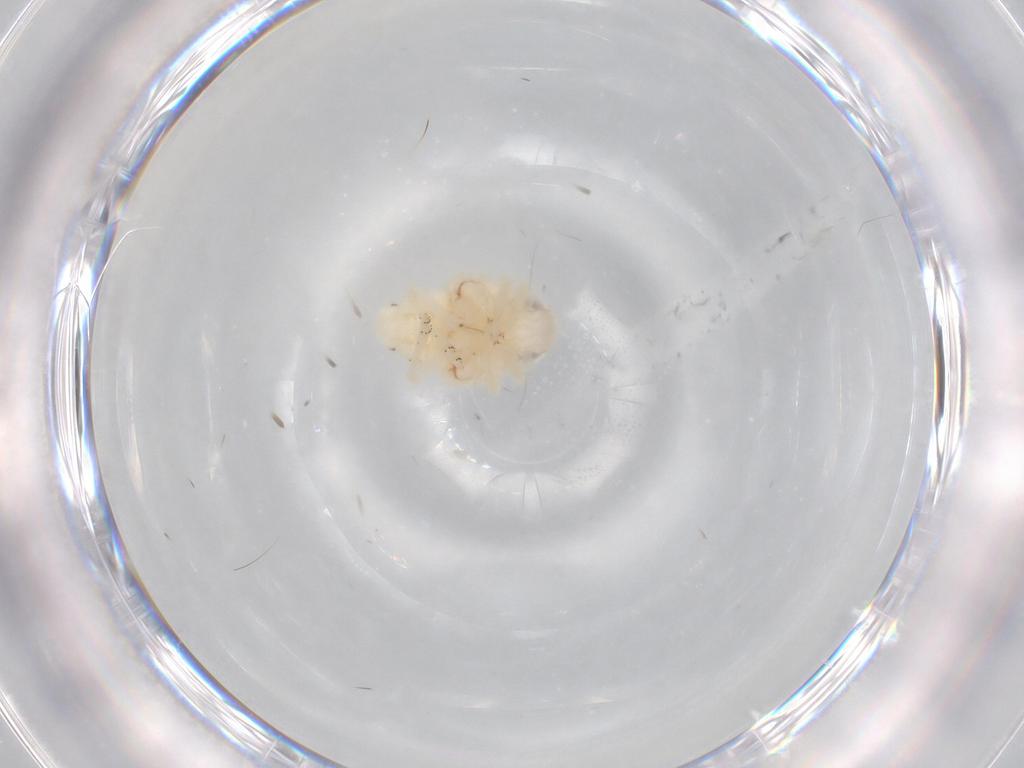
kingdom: Animalia
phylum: Arthropoda
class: Insecta
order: Hemiptera
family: Nogodinidae
